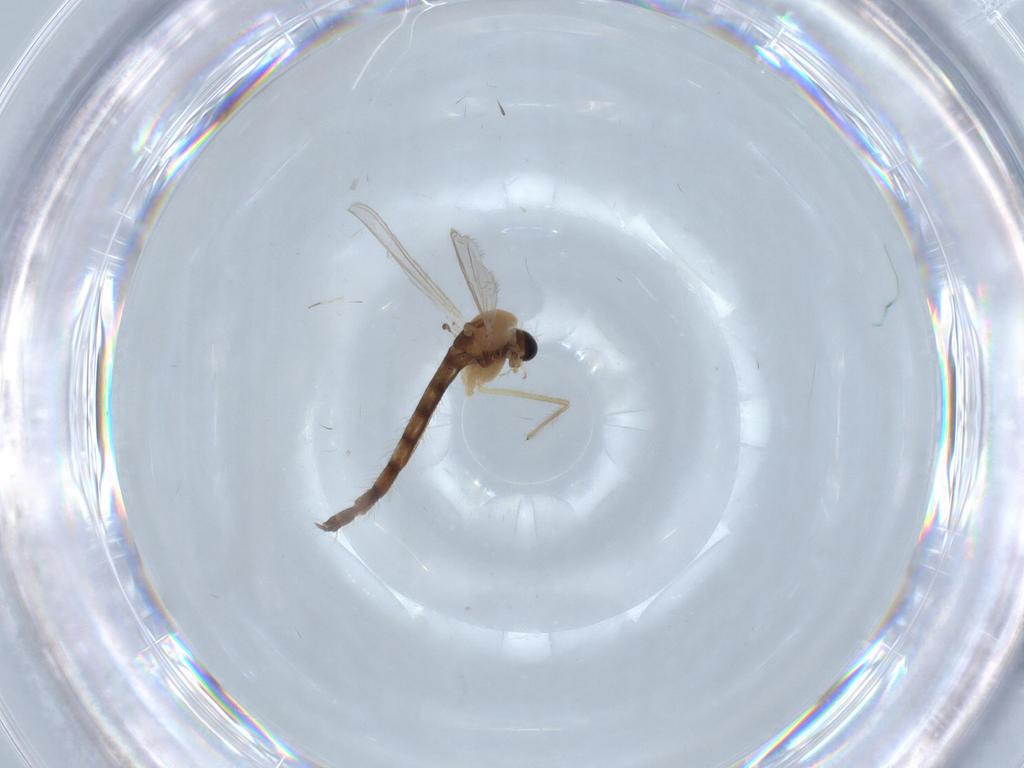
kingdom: Animalia
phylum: Arthropoda
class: Insecta
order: Diptera
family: Chironomidae
